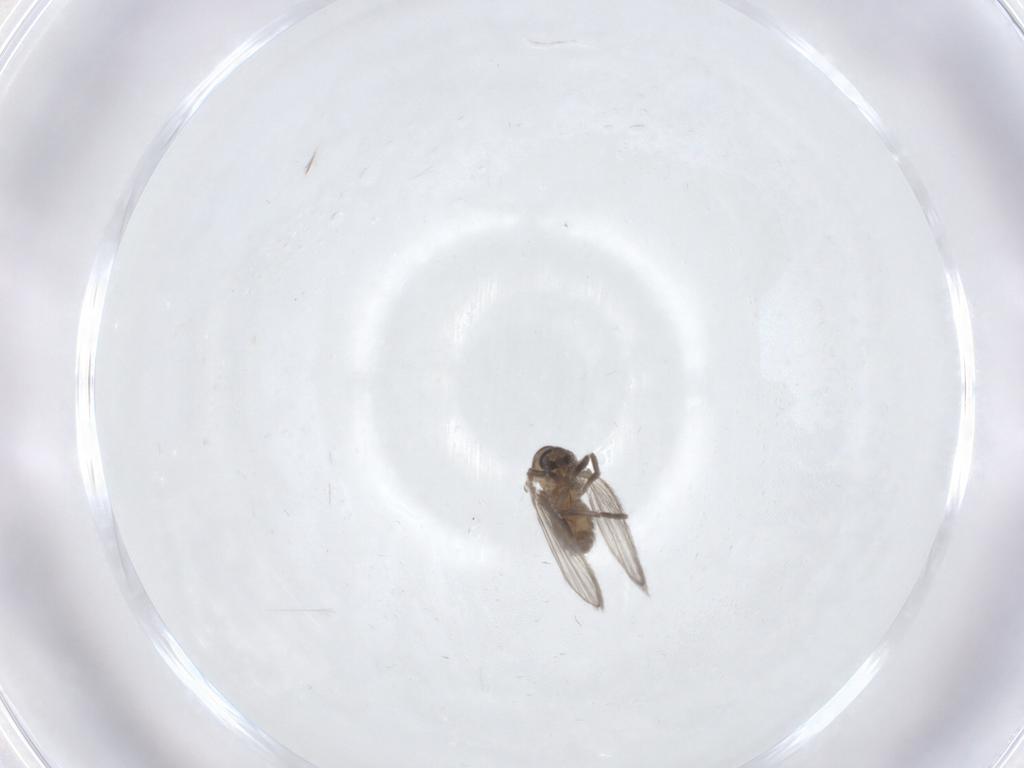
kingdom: Animalia
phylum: Arthropoda
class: Insecta
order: Diptera
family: Psychodidae
